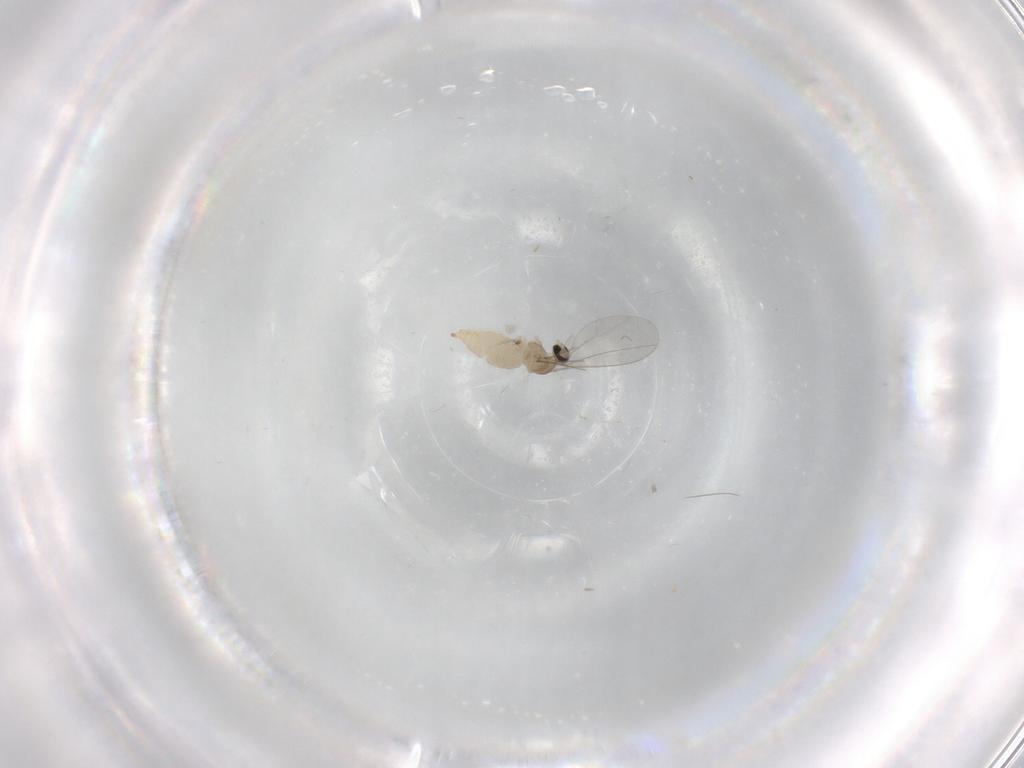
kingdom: Animalia
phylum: Arthropoda
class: Insecta
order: Diptera
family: Cecidomyiidae
